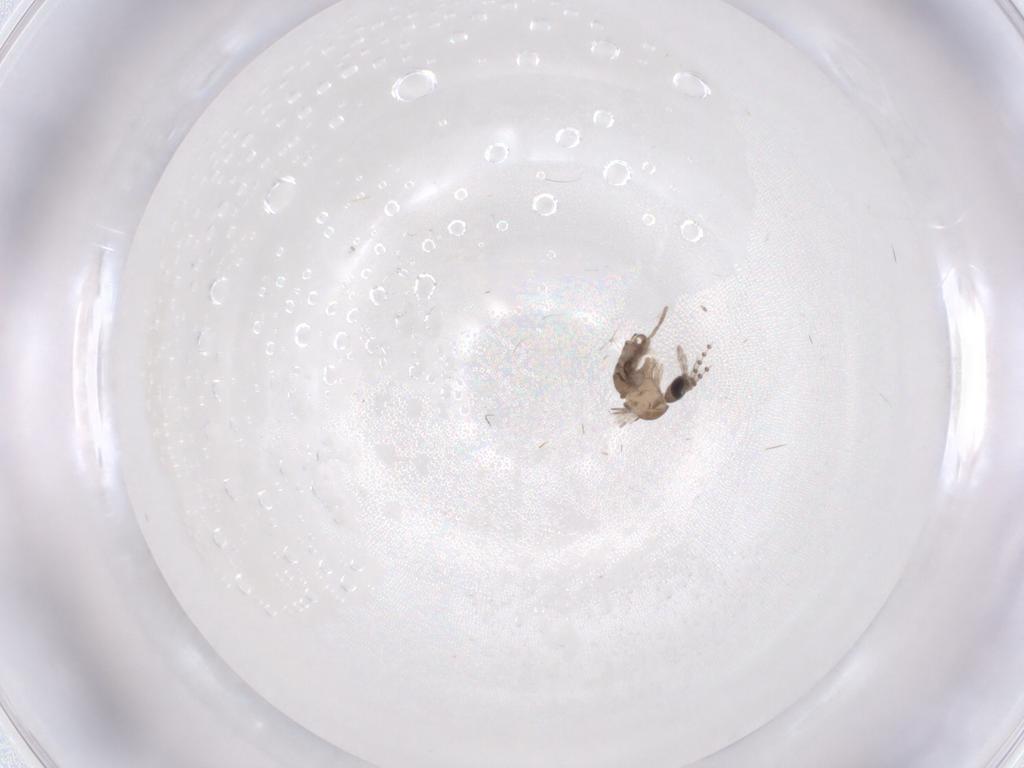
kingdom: Animalia
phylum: Arthropoda
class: Insecta
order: Diptera
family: Psychodidae
